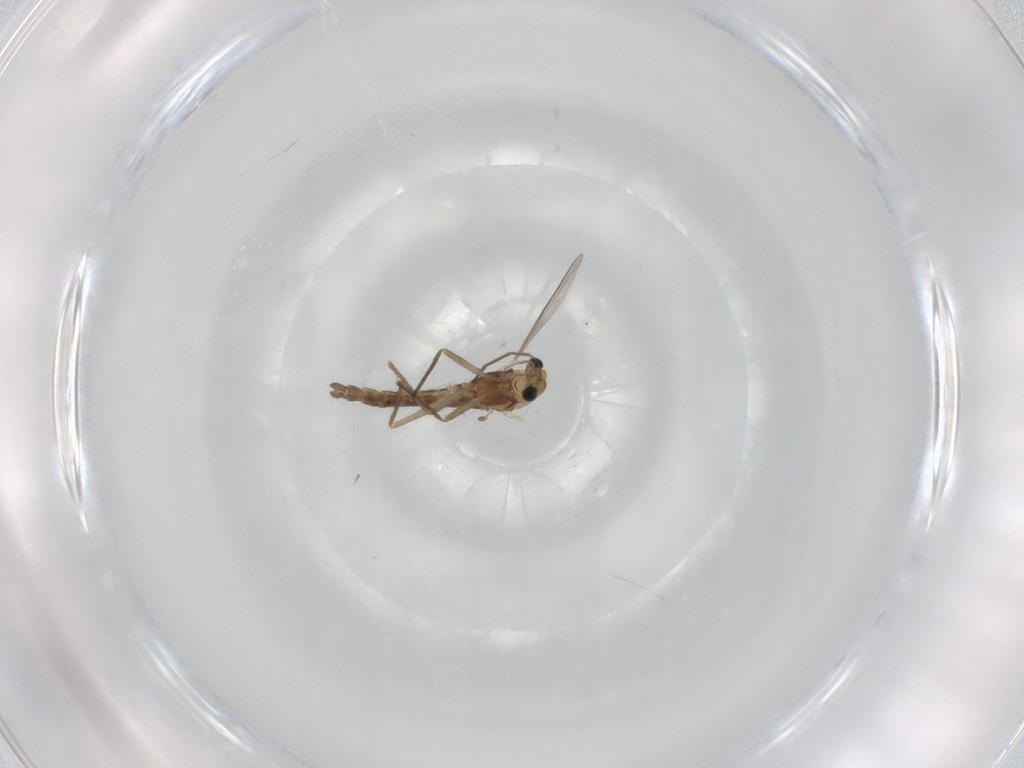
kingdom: Animalia
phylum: Arthropoda
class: Insecta
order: Diptera
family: Chironomidae
